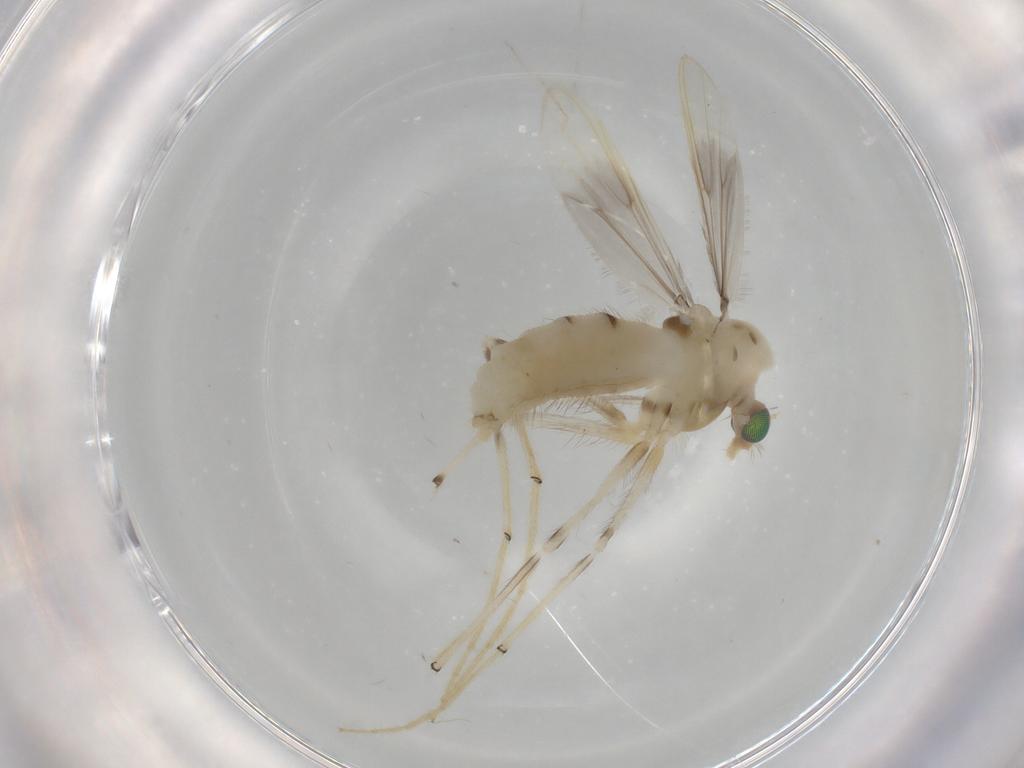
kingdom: Animalia
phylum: Arthropoda
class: Insecta
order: Diptera
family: Chironomidae
